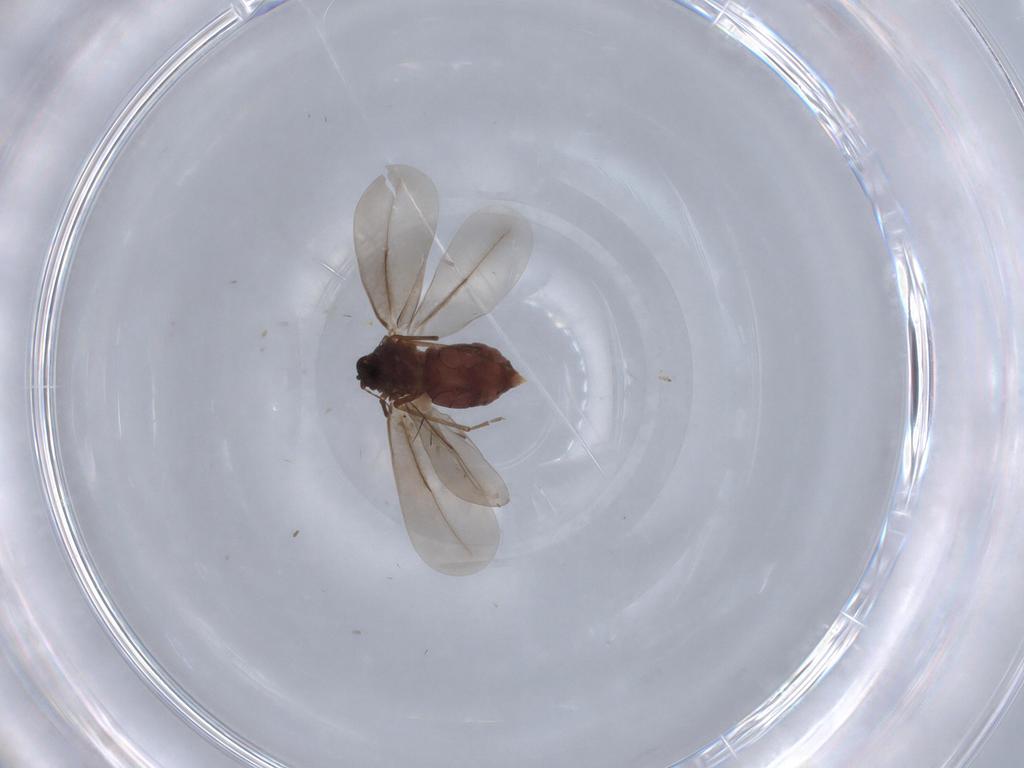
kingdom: Animalia
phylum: Arthropoda
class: Insecta
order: Hemiptera
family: Aleyrodidae
